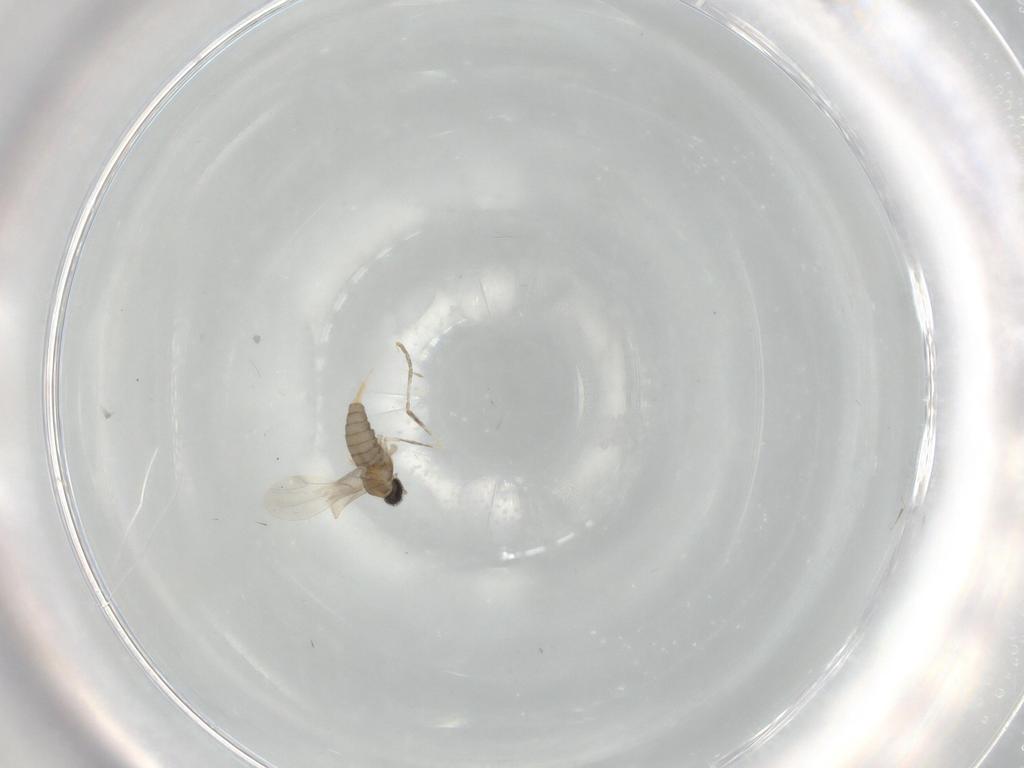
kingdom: Animalia
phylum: Arthropoda
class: Insecta
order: Diptera
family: Cecidomyiidae
